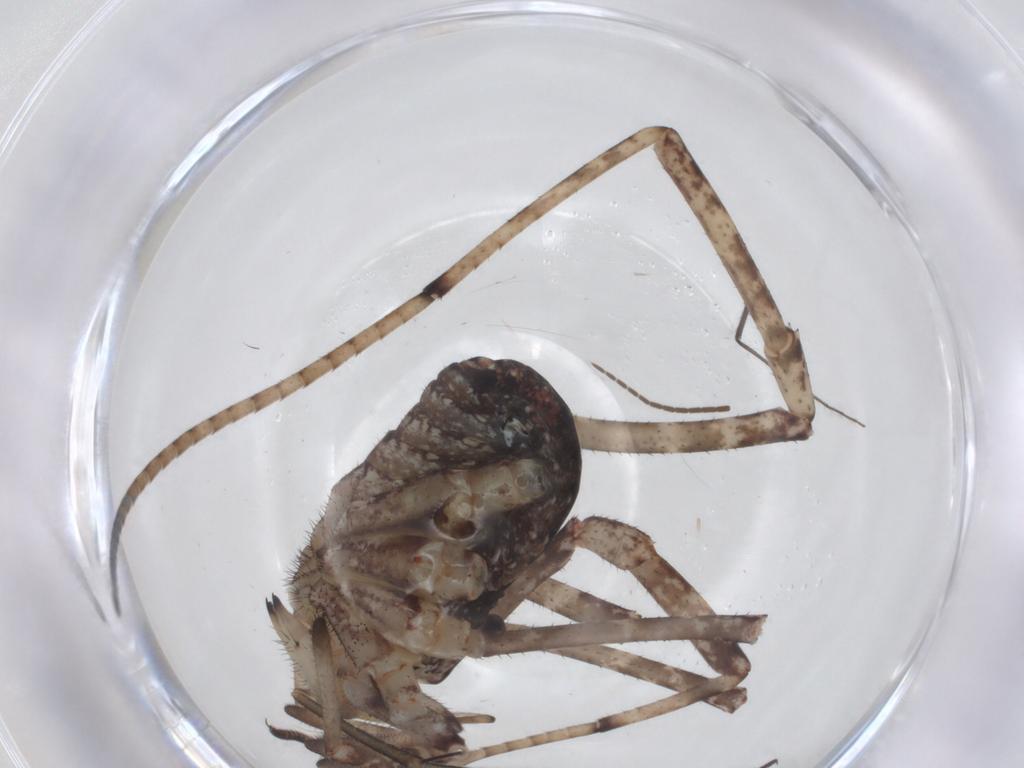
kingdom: Animalia
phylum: Arthropoda
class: Insecta
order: Hemiptera
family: Tropiduchidae
